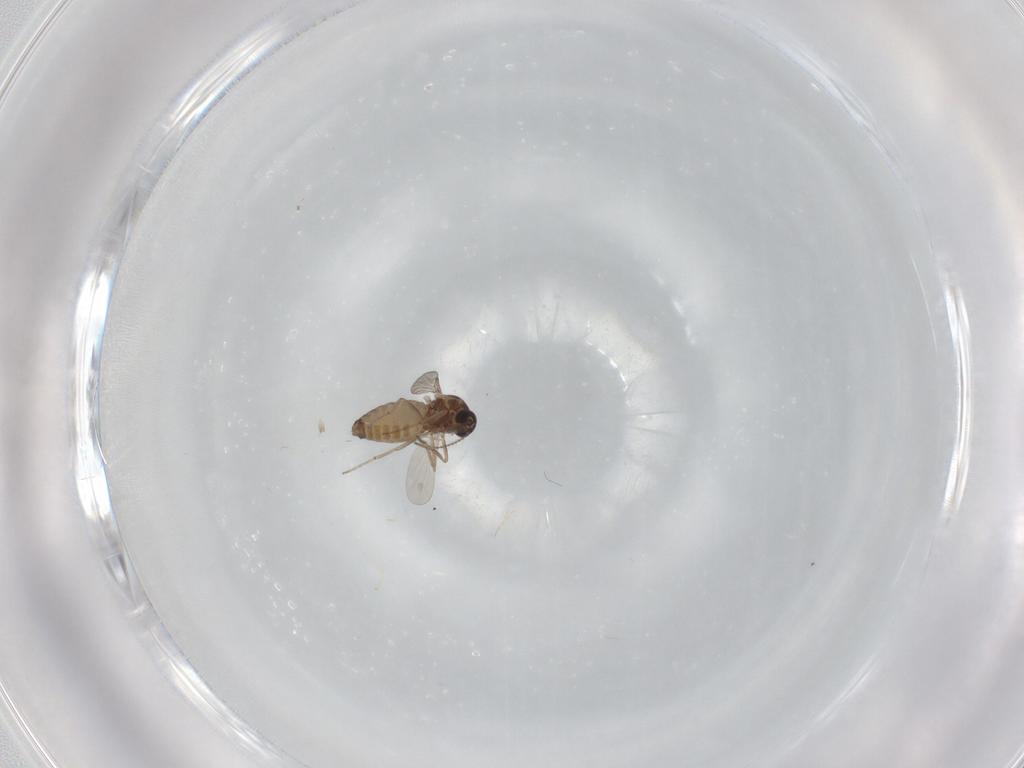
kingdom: Animalia
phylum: Arthropoda
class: Insecta
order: Diptera
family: Ceratopogonidae
